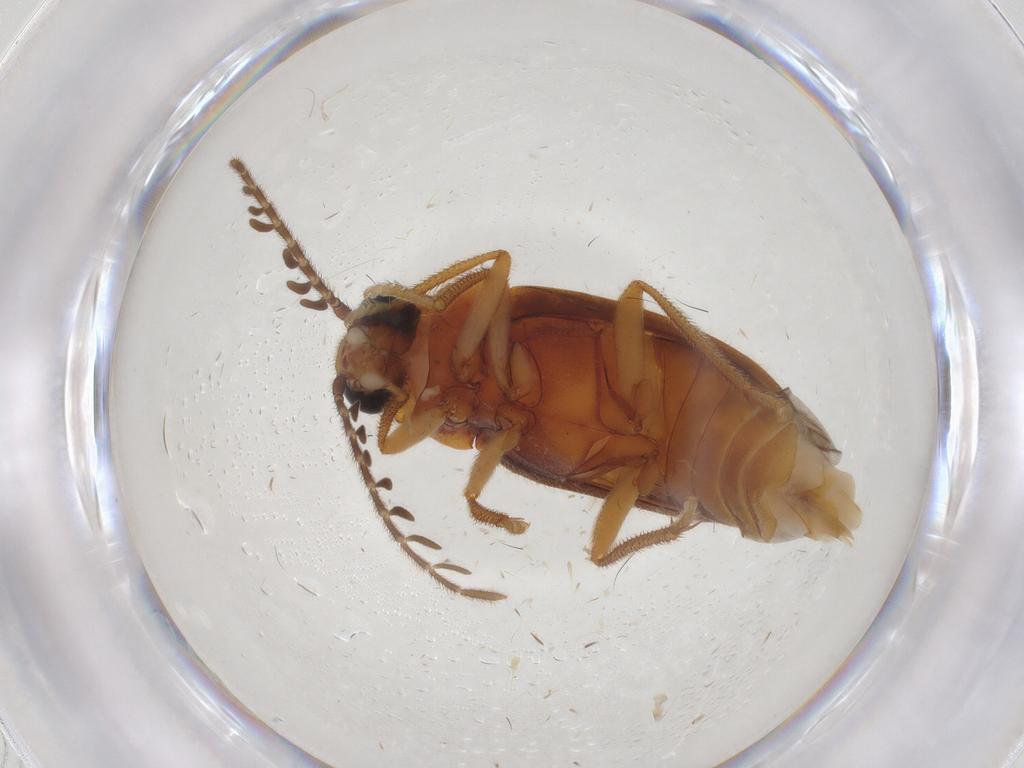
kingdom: Animalia
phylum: Arthropoda
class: Insecta
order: Coleoptera
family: Ptilodactylidae
